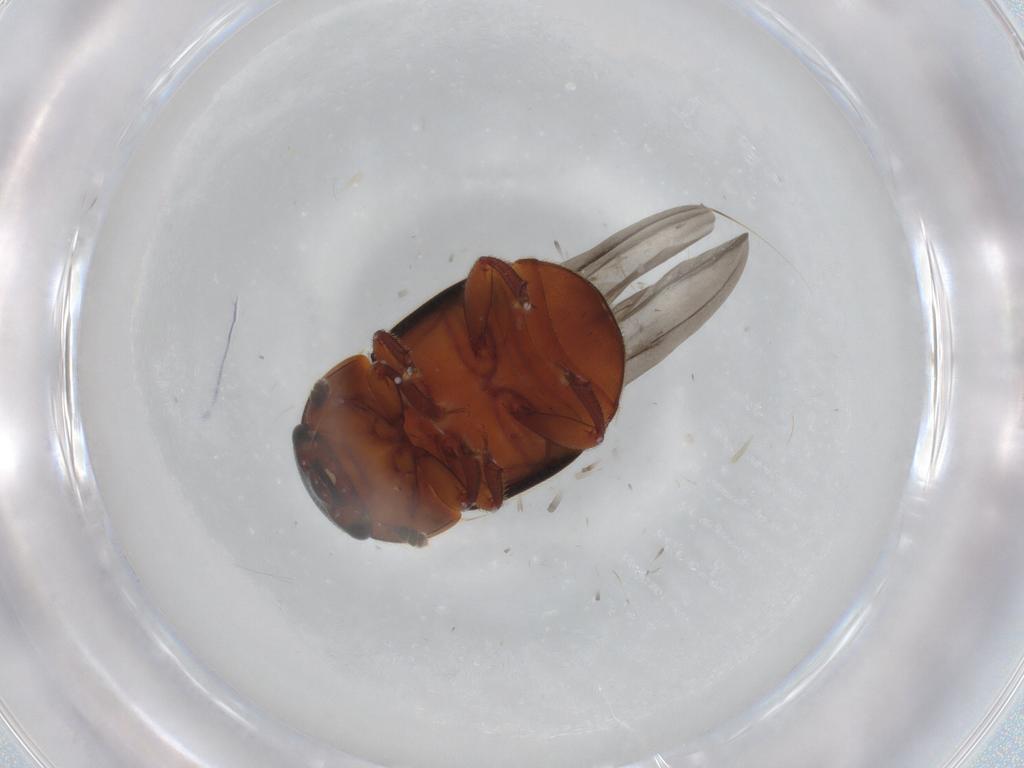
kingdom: Animalia
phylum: Arthropoda
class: Insecta
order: Coleoptera
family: Nitidulidae
